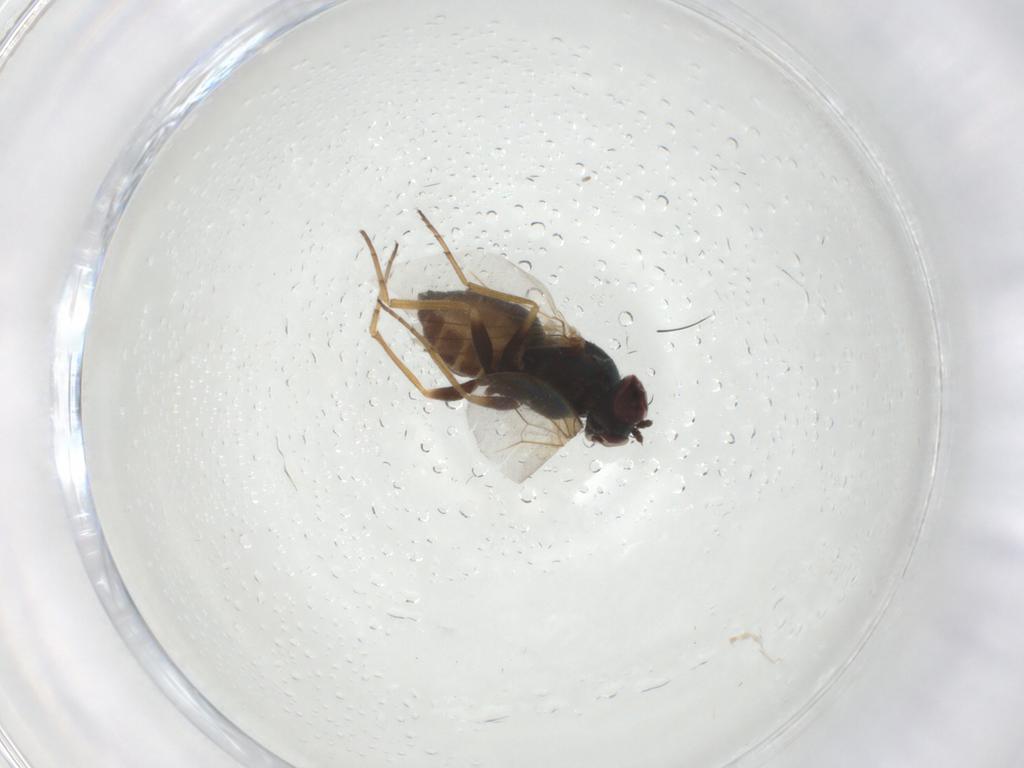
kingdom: Animalia
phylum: Arthropoda
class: Insecta
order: Diptera
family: Dolichopodidae
